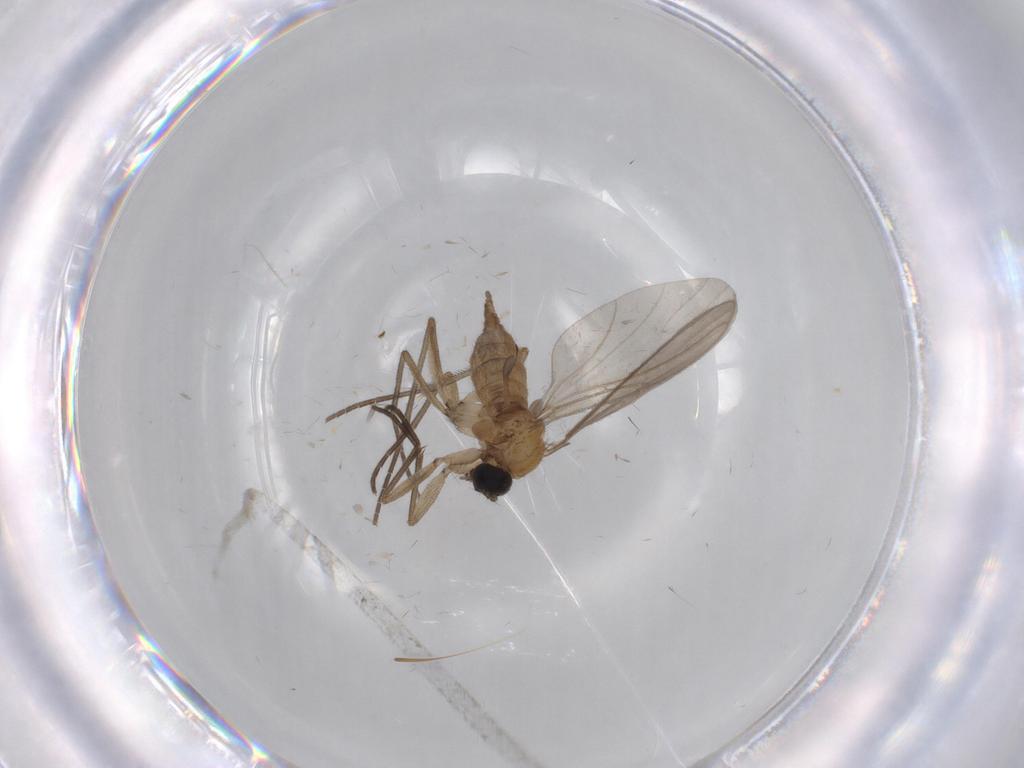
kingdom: Animalia
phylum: Arthropoda
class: Insecta
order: Diptera
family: Sciaridae
